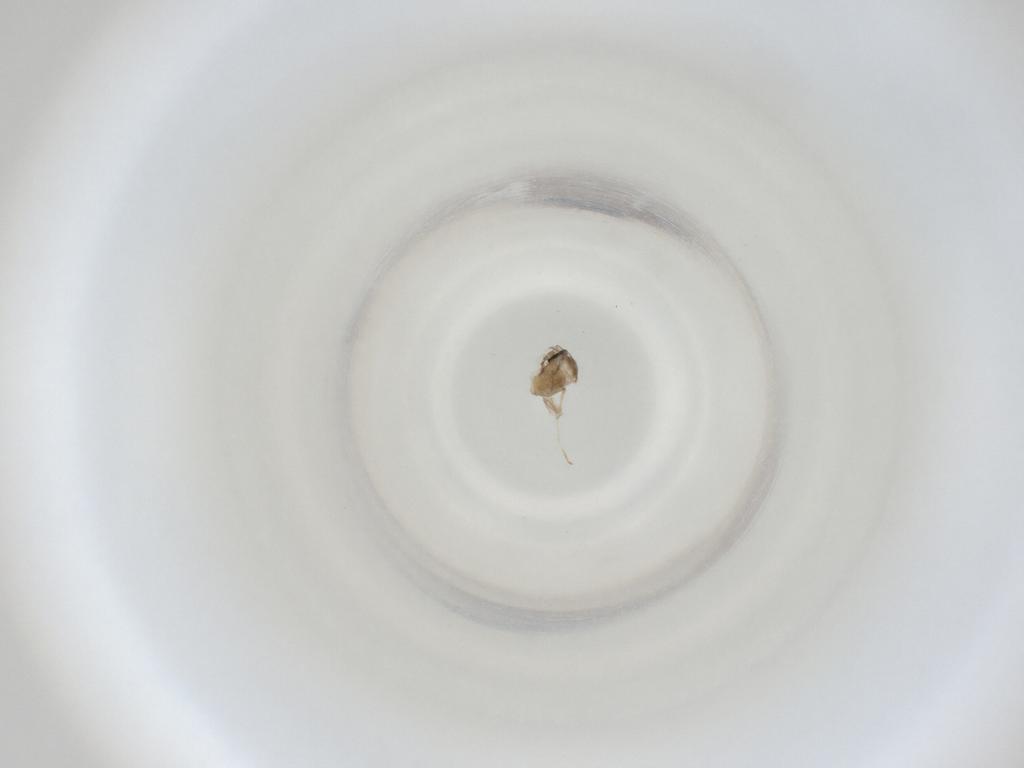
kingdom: Animalia
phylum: Arthropoda
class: Insecta
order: Diptera
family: Cecidomyiidae
